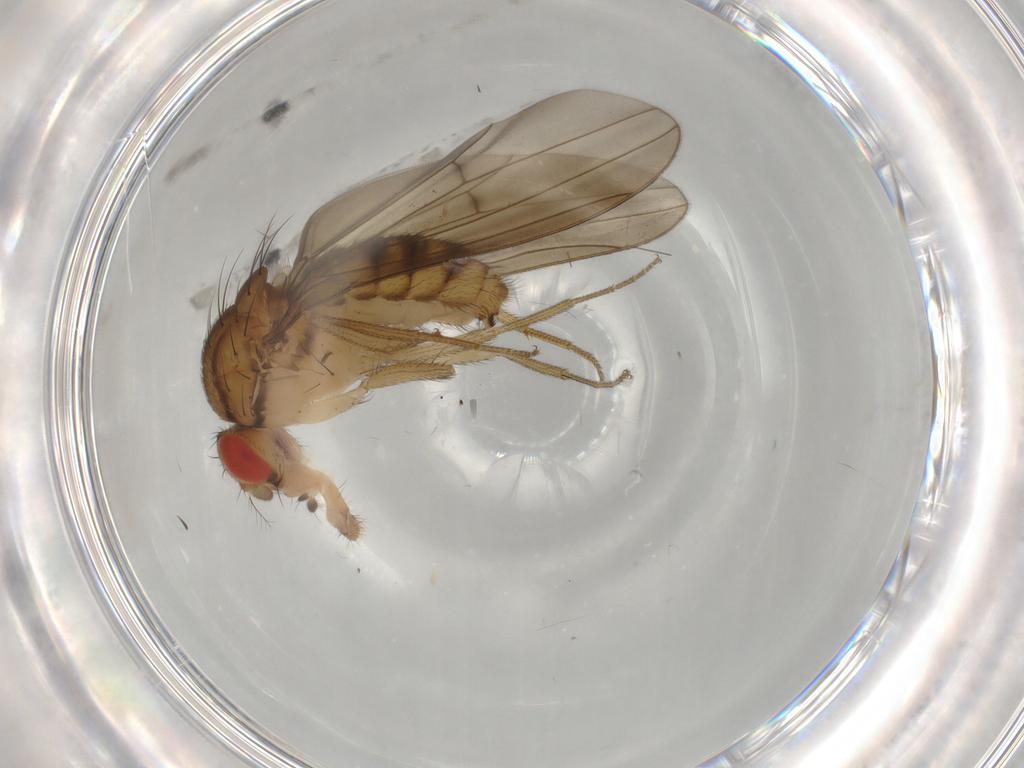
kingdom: Animalia
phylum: Arthropoda
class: Insecta
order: Diptera
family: Drosophilidae
